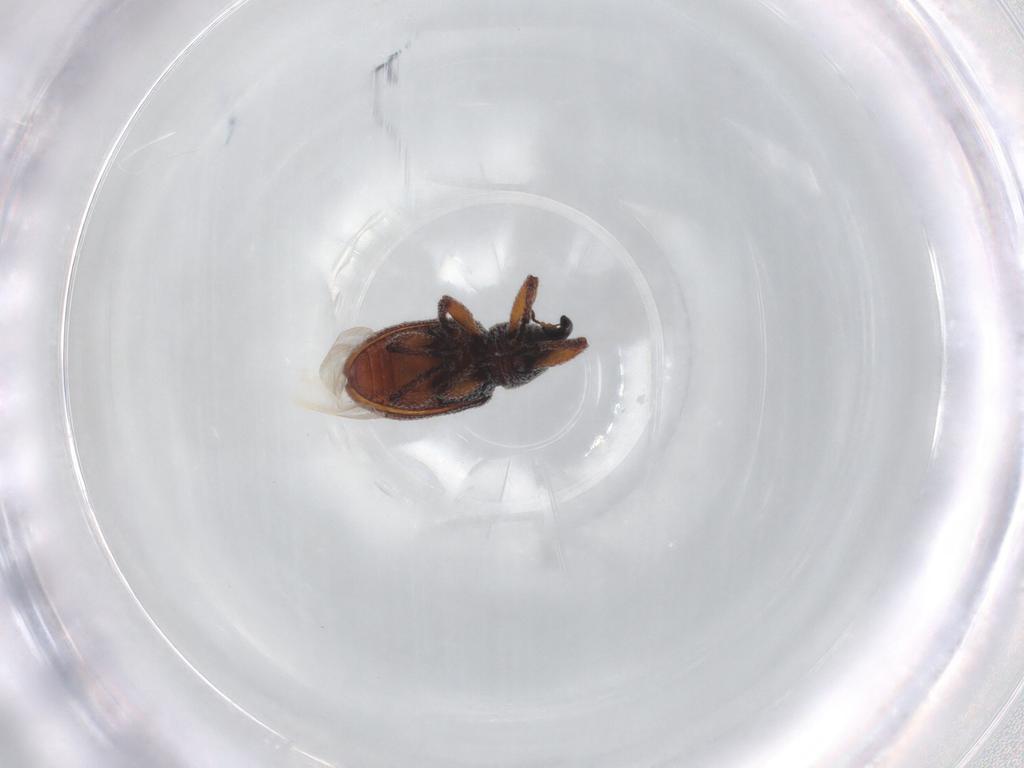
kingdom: Animalia
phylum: Arthropoda
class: Insecta
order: Coleoptera
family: Curculionidae
